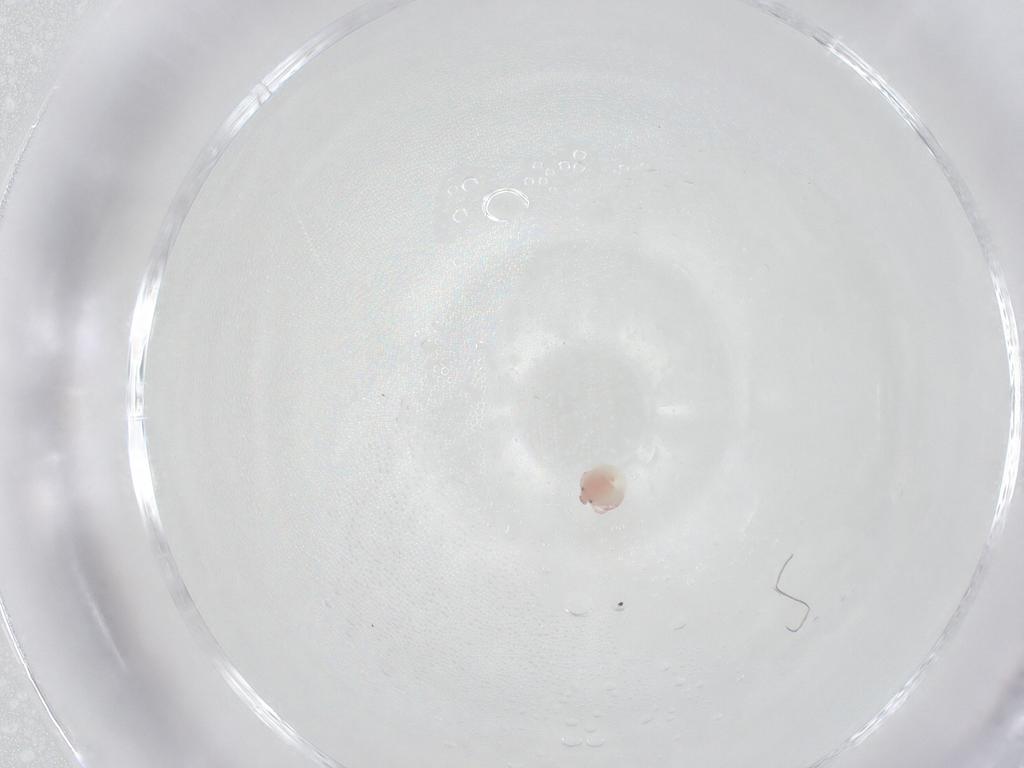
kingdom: Animalia
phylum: Arthropoda
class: Arachnida
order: Trombidiformes
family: Pionidae
